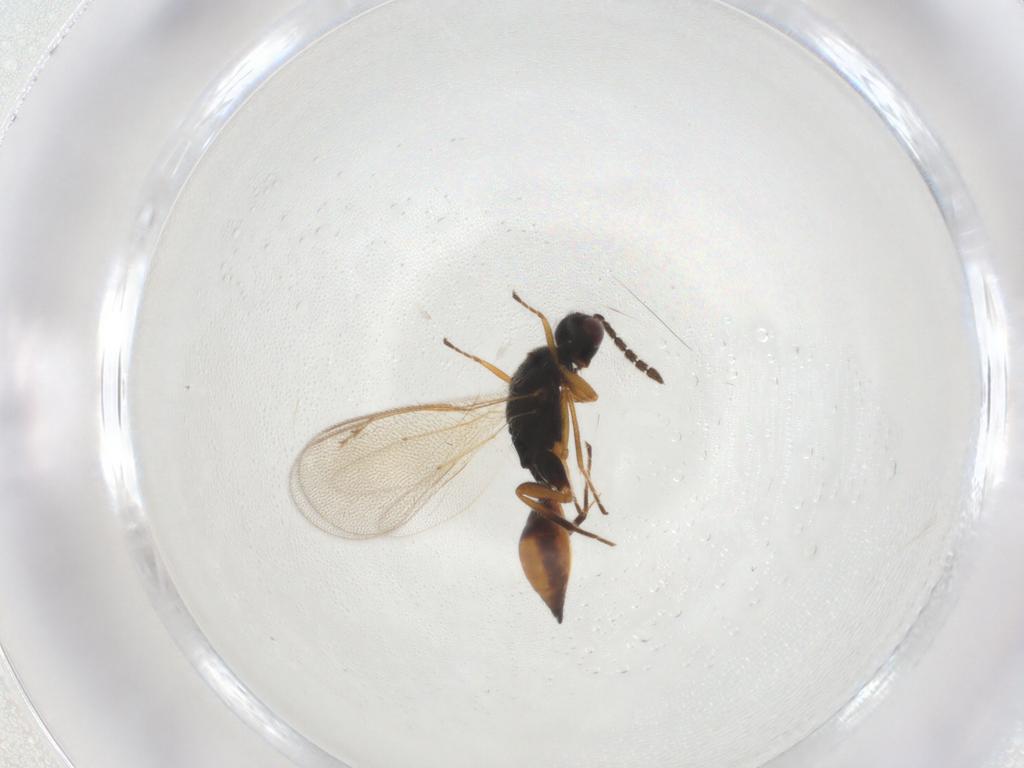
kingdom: Animalia
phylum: Arthropoda
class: Insecta
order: Hymenoptera
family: Eulophidae
